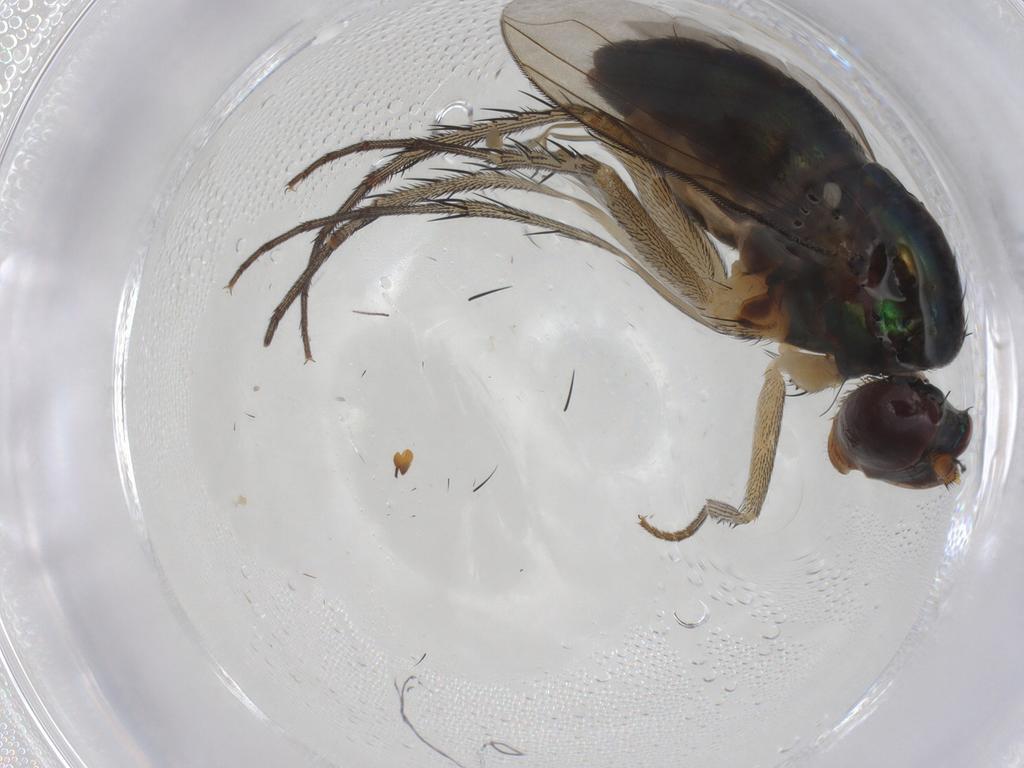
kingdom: Animalia
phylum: Arthropoda
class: Insecta
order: Diptera
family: Dolichopodidae
